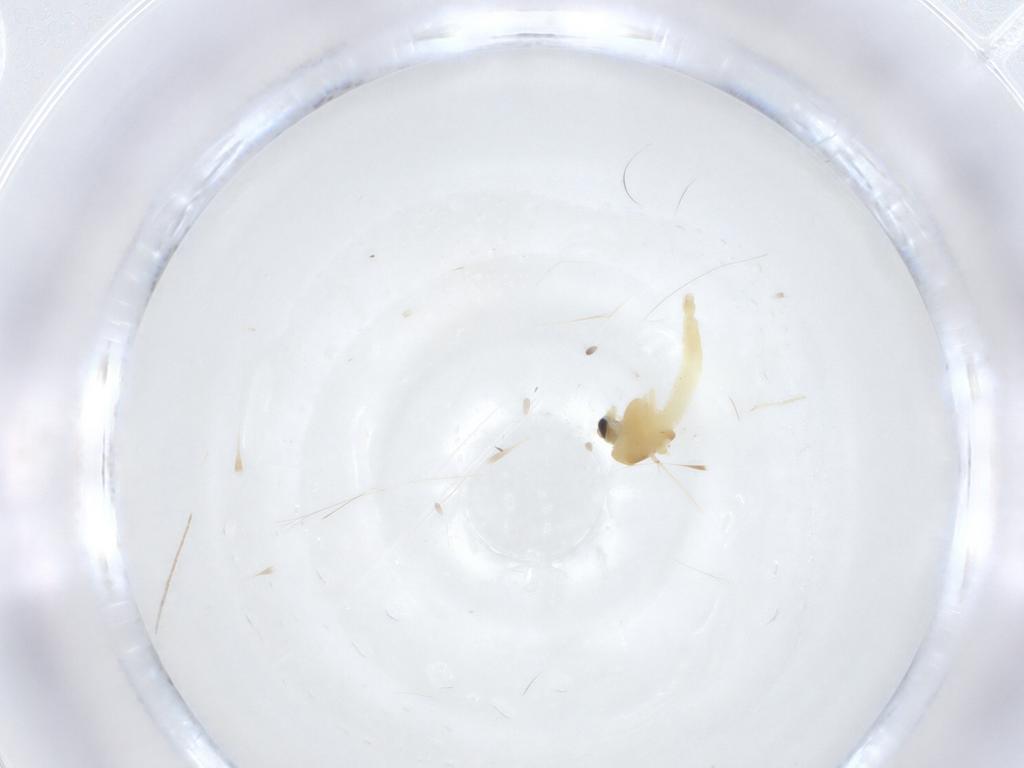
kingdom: Animalia
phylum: Arthropoda
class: Insecta
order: Diptera
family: Chironomidae
